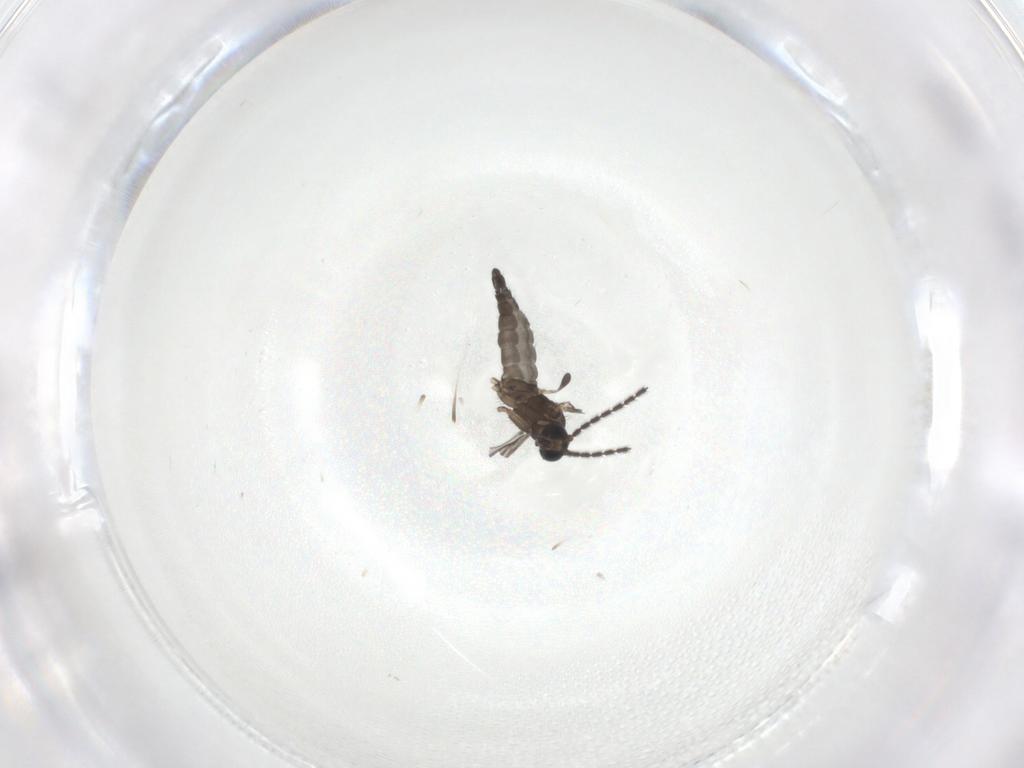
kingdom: Animalia
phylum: Arthropoda
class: Insecta
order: Diptera
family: Sciaridae
